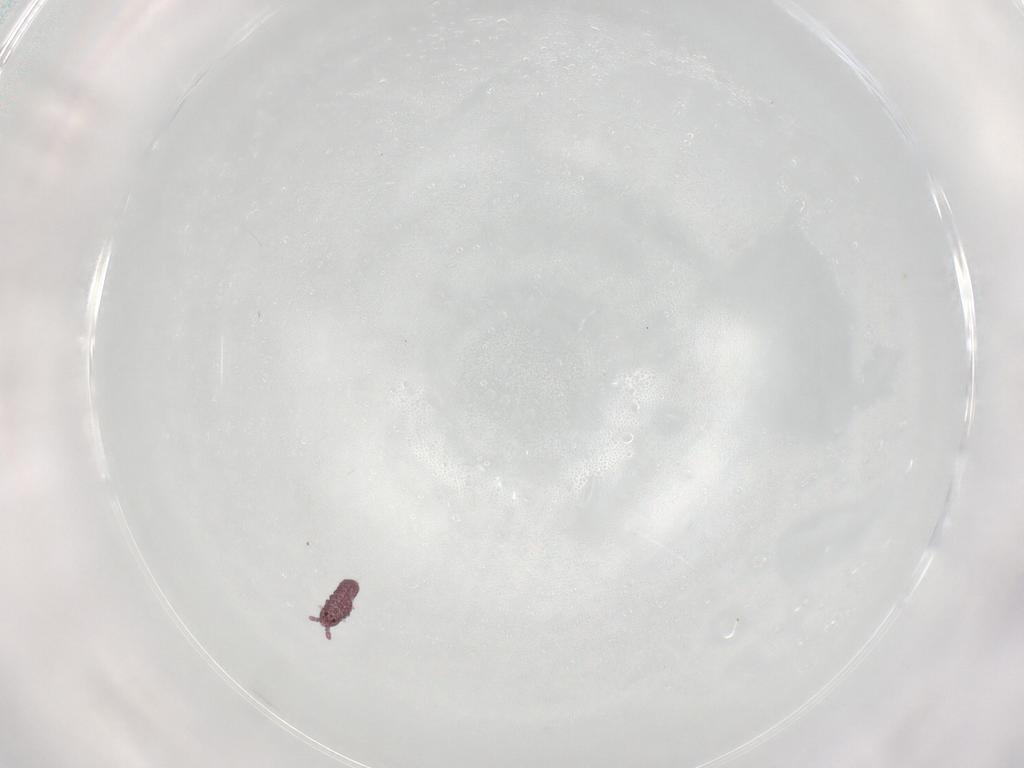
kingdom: Animalia
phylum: Arthropoda
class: Collembola
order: Poduromorpha
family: Hypogastruridae
